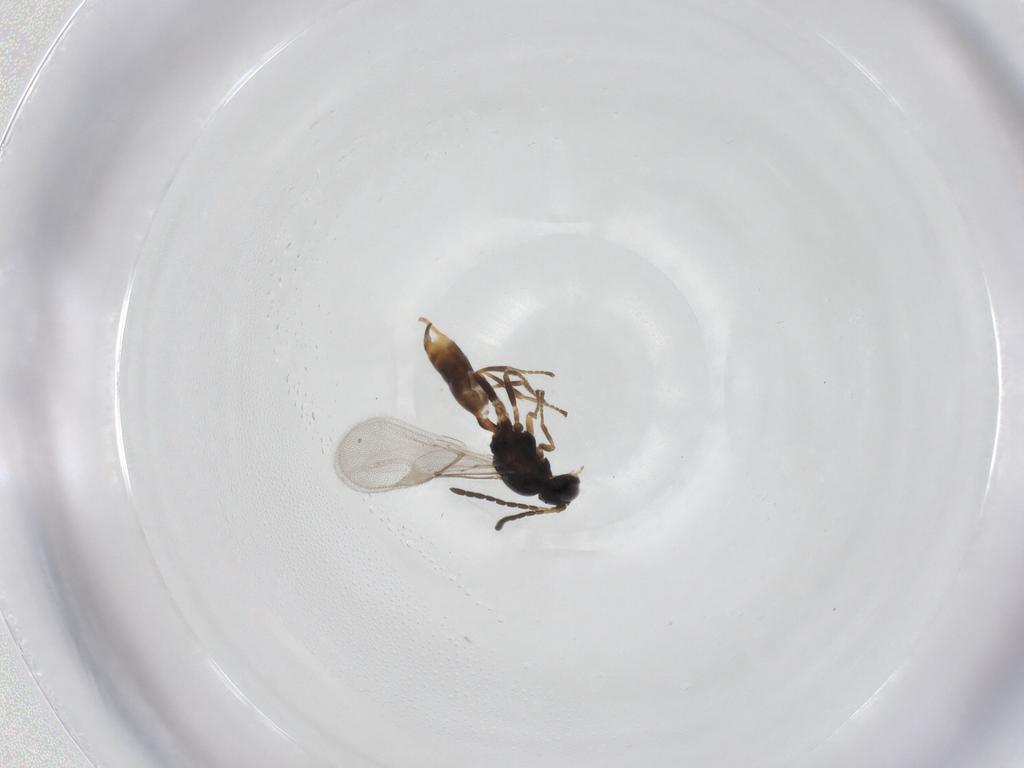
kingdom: Animalia
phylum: Arthropoda
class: Insecta
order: Hymenoptera
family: Braconidae
